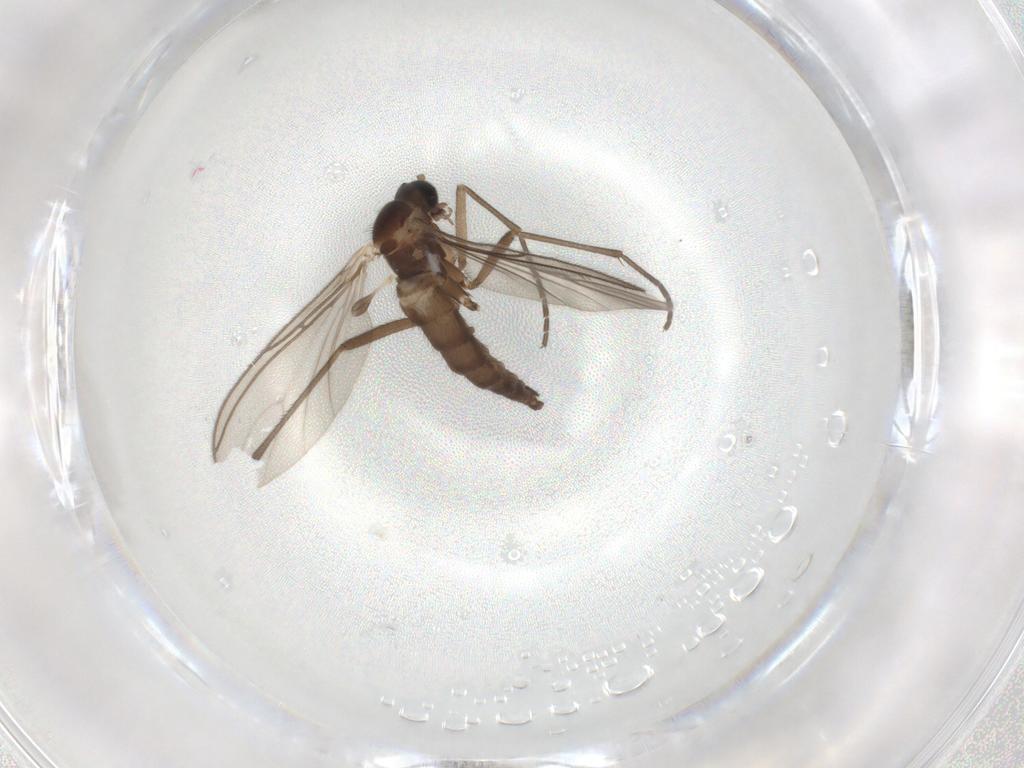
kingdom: Animalia
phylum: Arthropoda
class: Insecta
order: Diptera
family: Sciaridae
